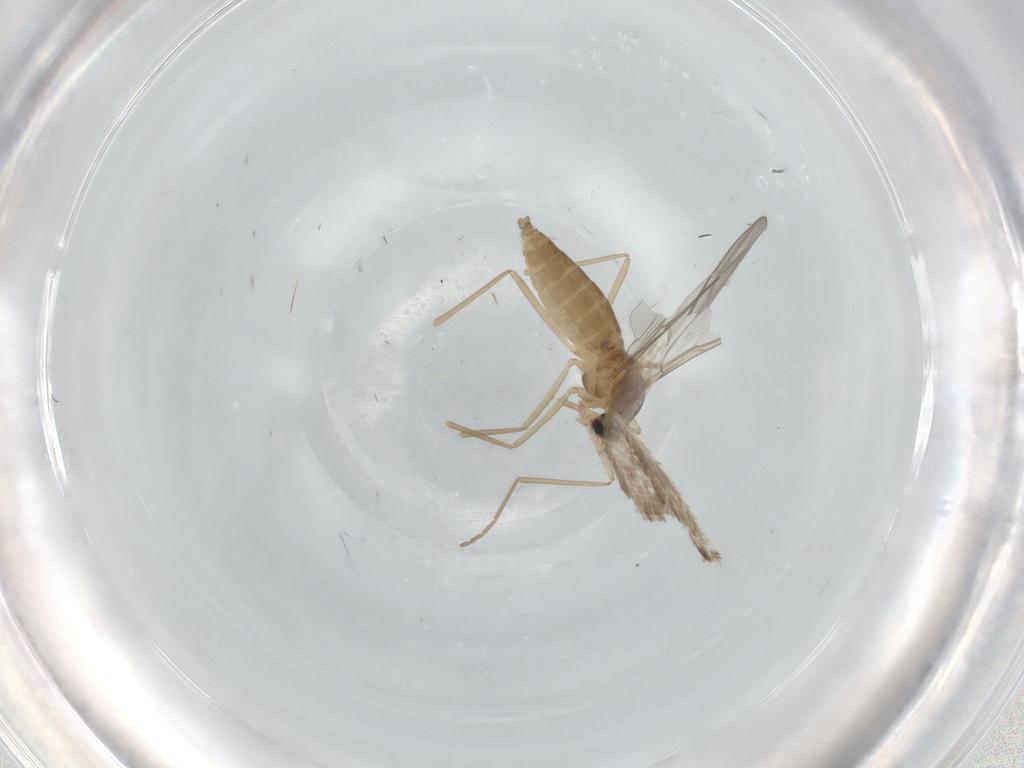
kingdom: Animalia
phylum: Arthropoda
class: Insecta
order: Diptera
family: Cecidomyiidae
